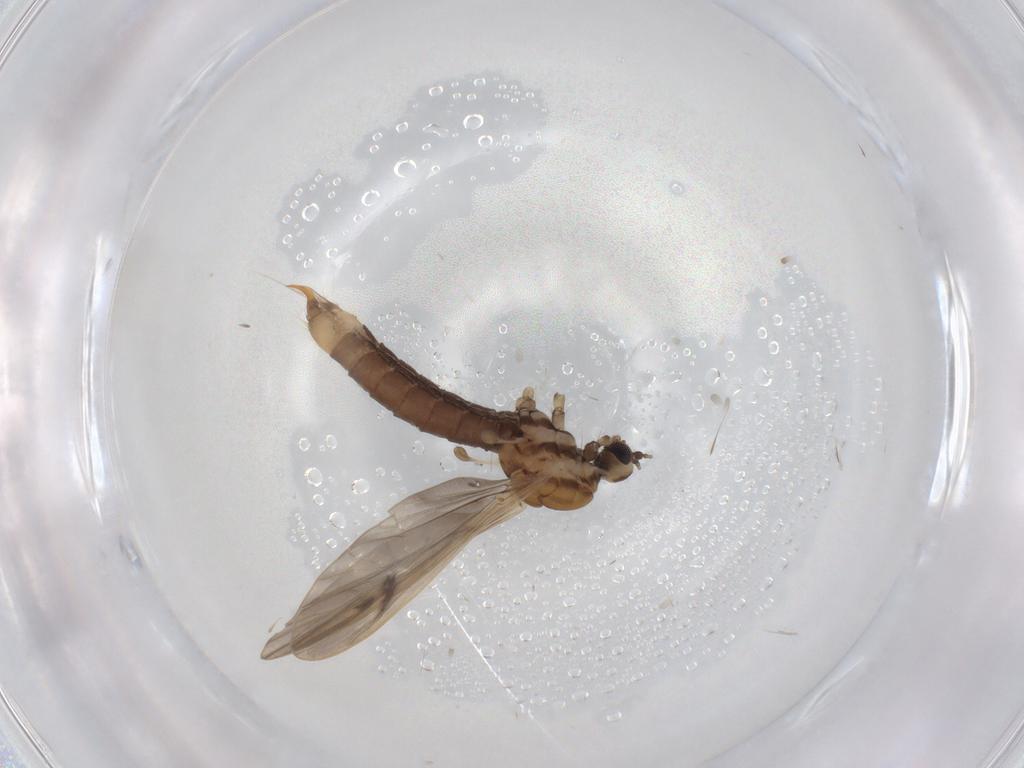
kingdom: Animalia
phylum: Arthropoda
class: Insecta
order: Diptera
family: Limoniidae
